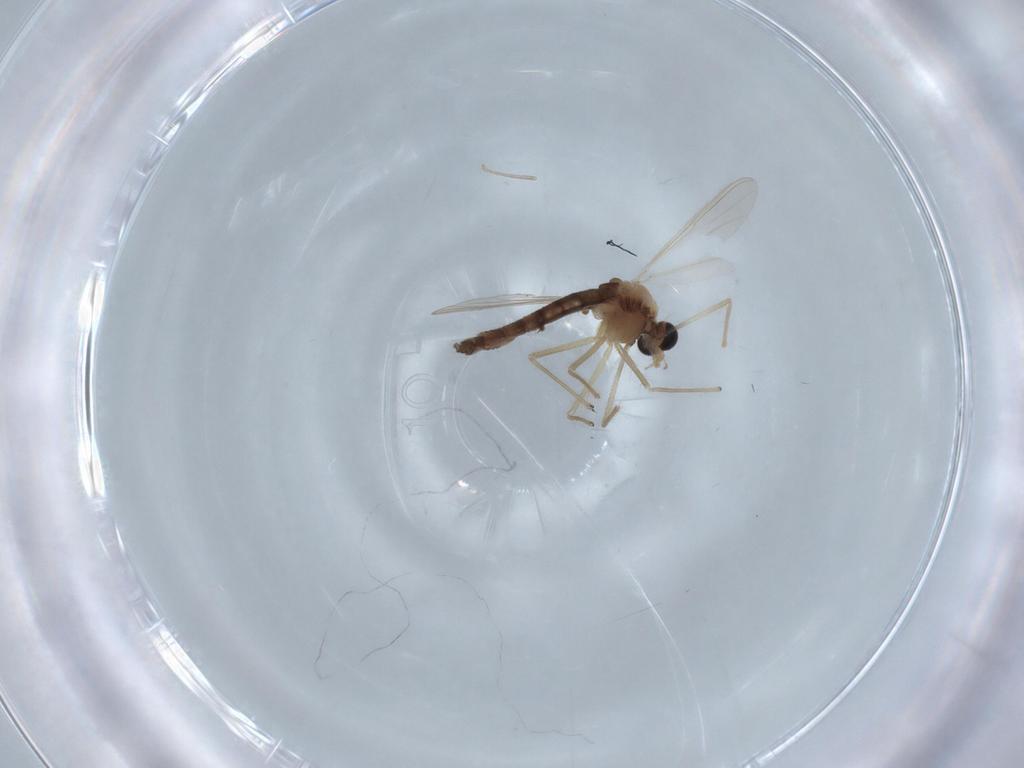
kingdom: Animalia
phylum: Arthropoda
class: Insecta
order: Diptera
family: Chironomidae
